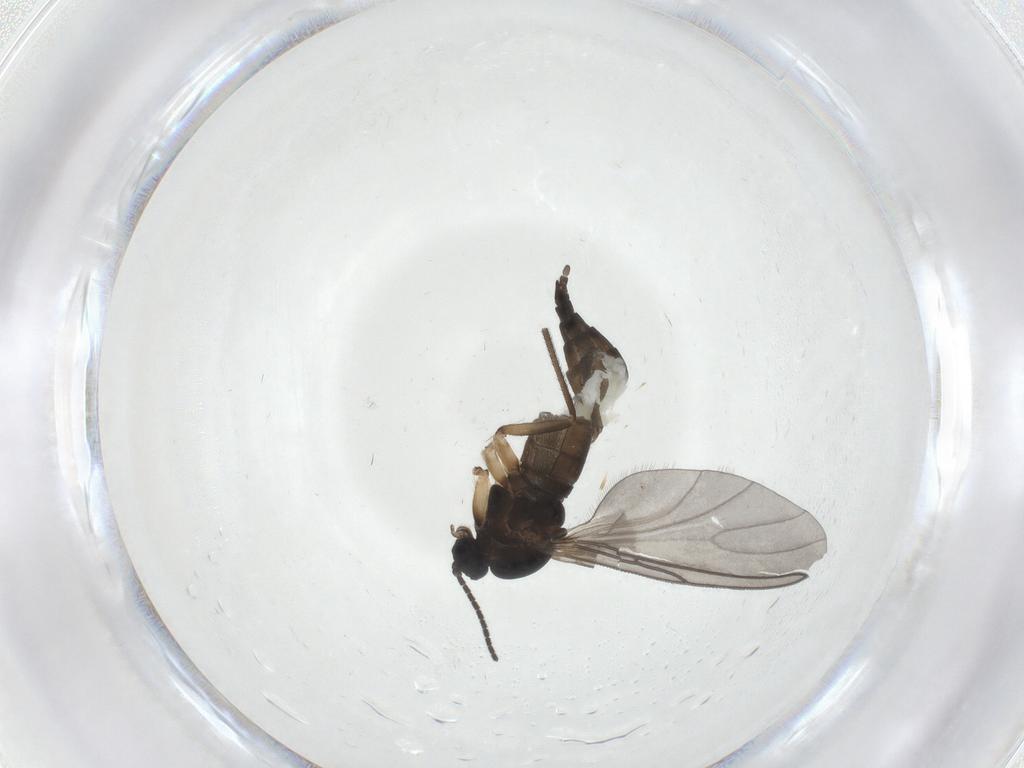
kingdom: Animalia
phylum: Arthropoda
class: Insecta
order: Diptera
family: Sciaridae
